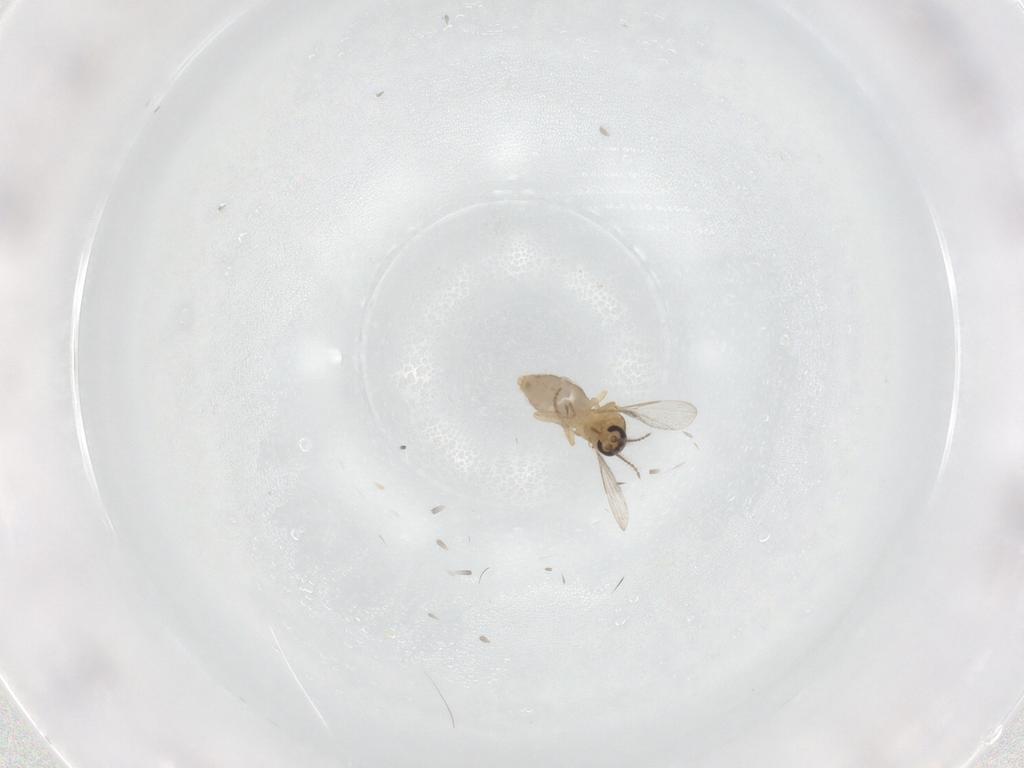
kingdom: Animalia
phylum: Arthropoda
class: Insecta
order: Diptera
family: Ceratopogonidae
